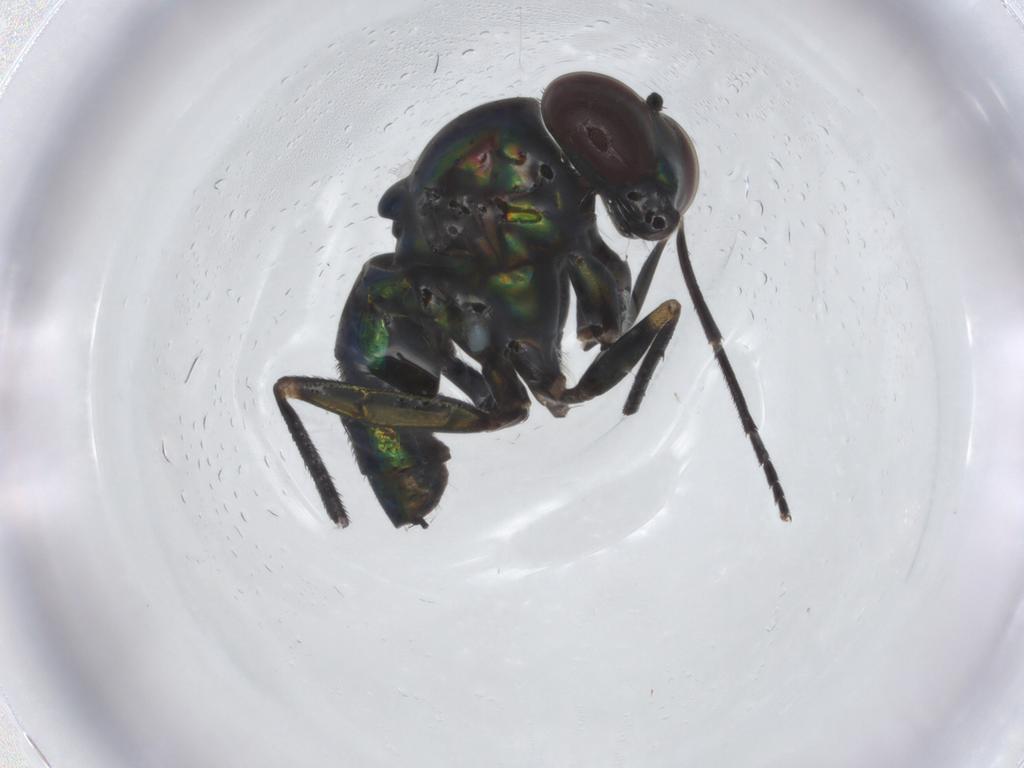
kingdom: Animalia
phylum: Arthropoda
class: Insecta
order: Diptera
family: Dolichopodidae
